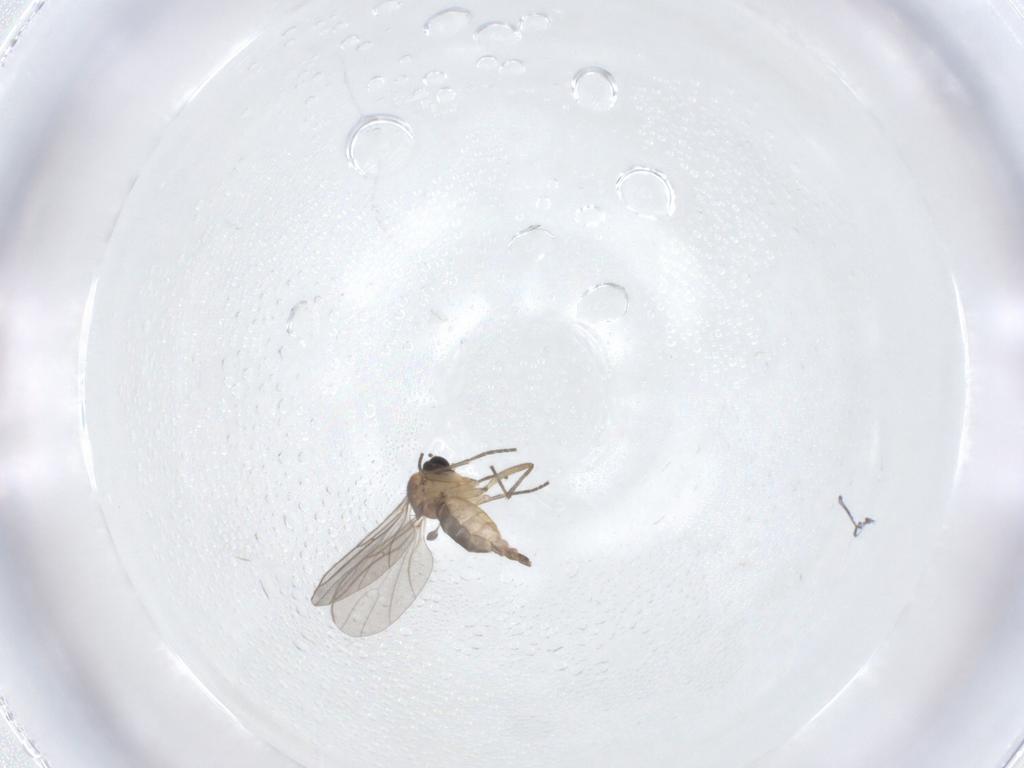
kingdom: Animalia
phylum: Arthropoda
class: Insecta
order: Diptera
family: Sciaridae
